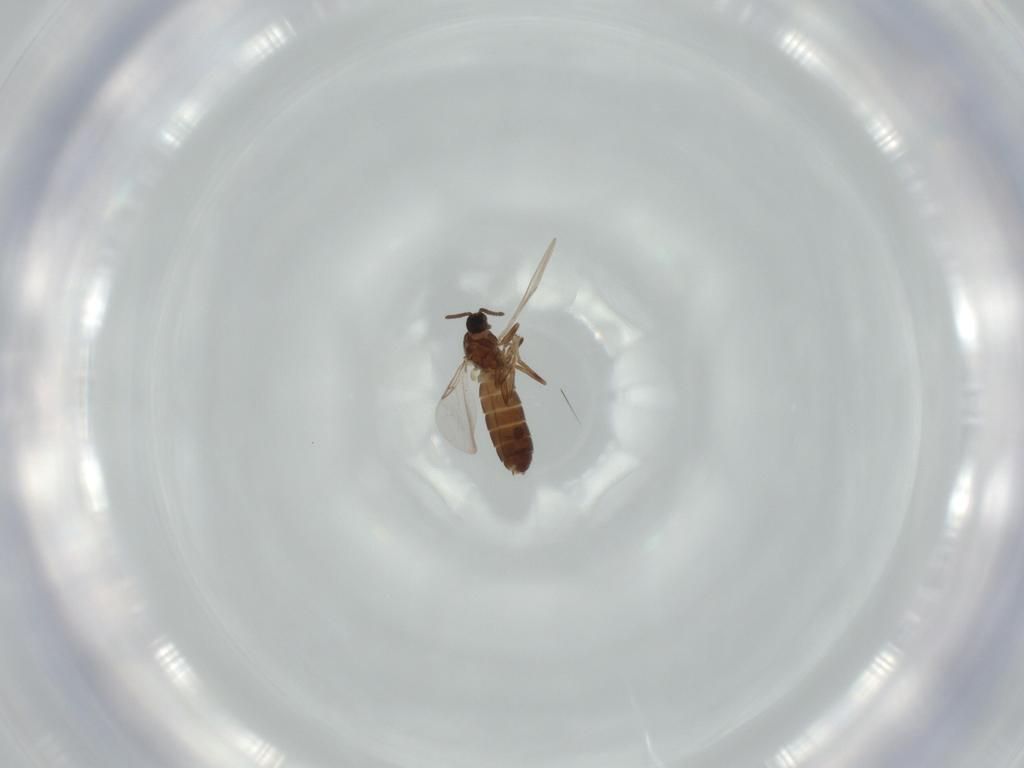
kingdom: Animalia
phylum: Arthropoda
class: Insecta
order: Diptera
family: Scatopsidae
